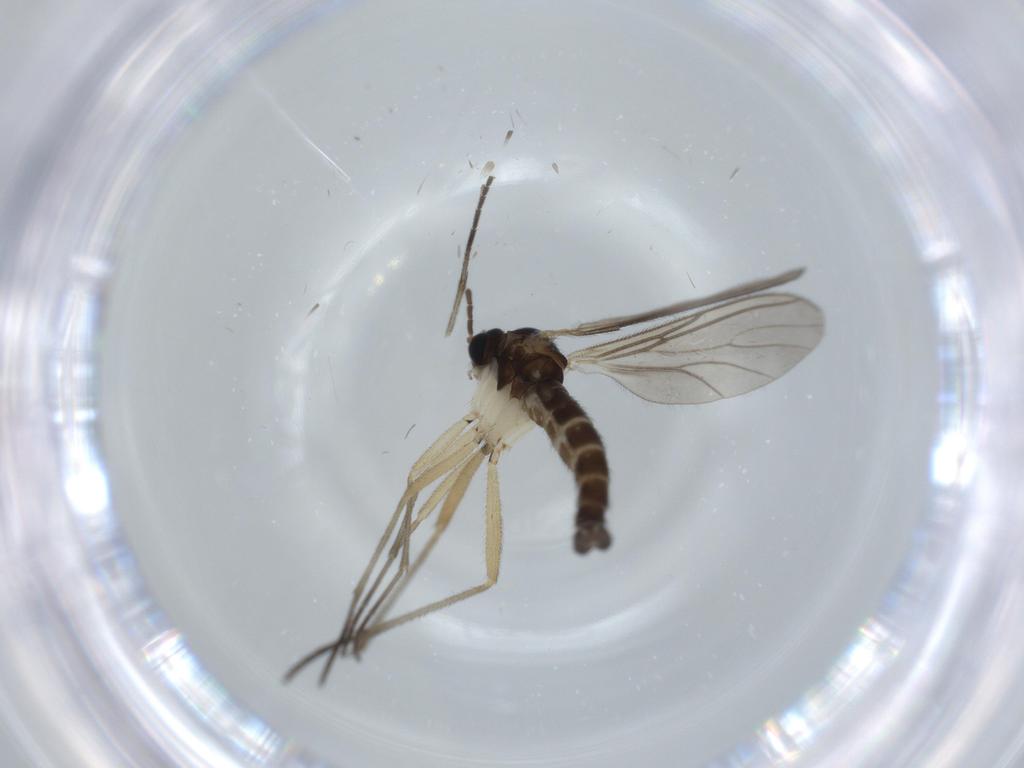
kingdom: Animalia
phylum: Arthropoda
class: Insecta
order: Diptera
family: Sciaridae
